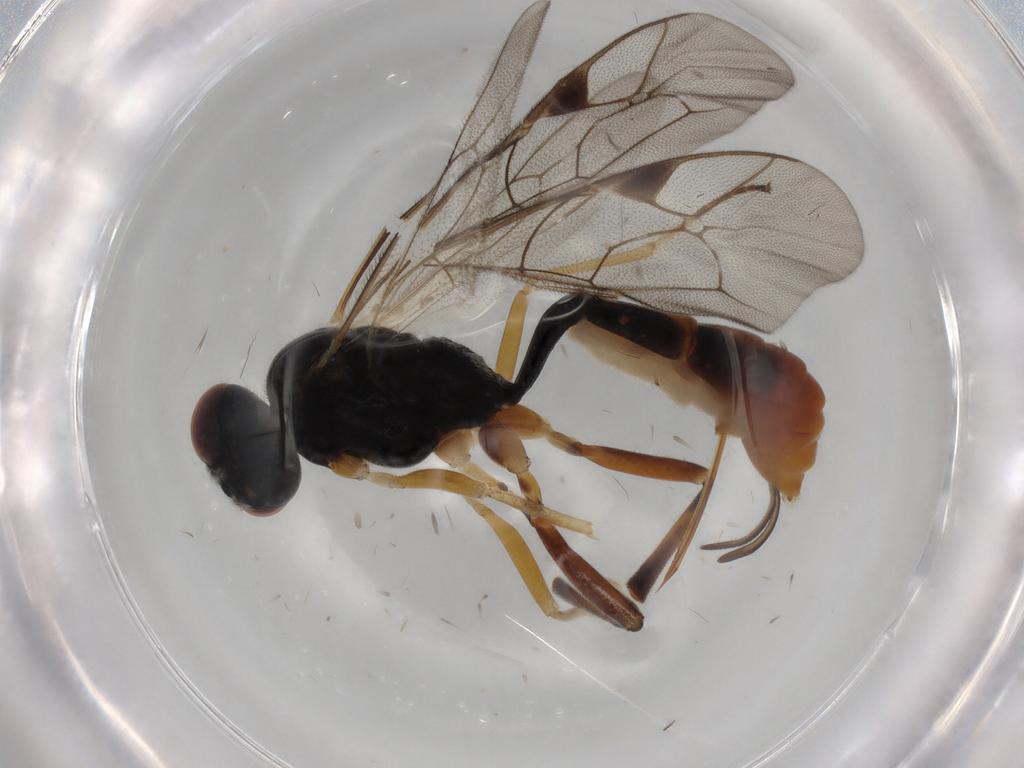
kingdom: Animalia
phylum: Arthropoda
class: Insecta
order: Hymenoptera
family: Ichneumonidae
